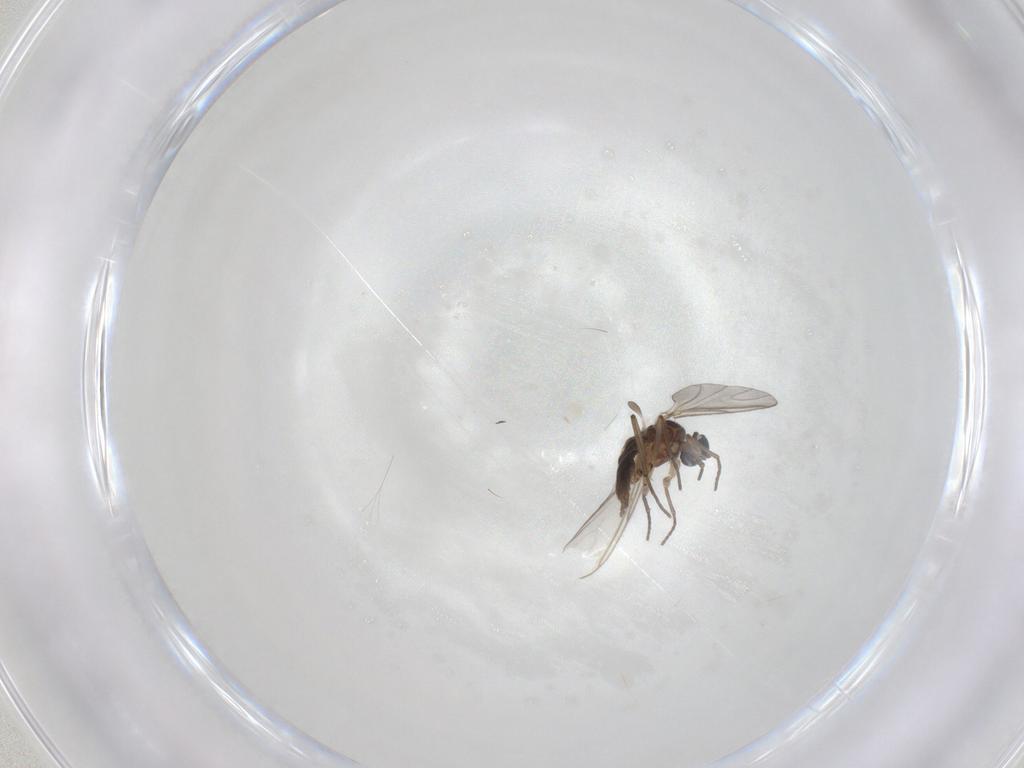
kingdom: Animalia
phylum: Arthropoda
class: Insecta
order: Diptera
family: Sciaridae
